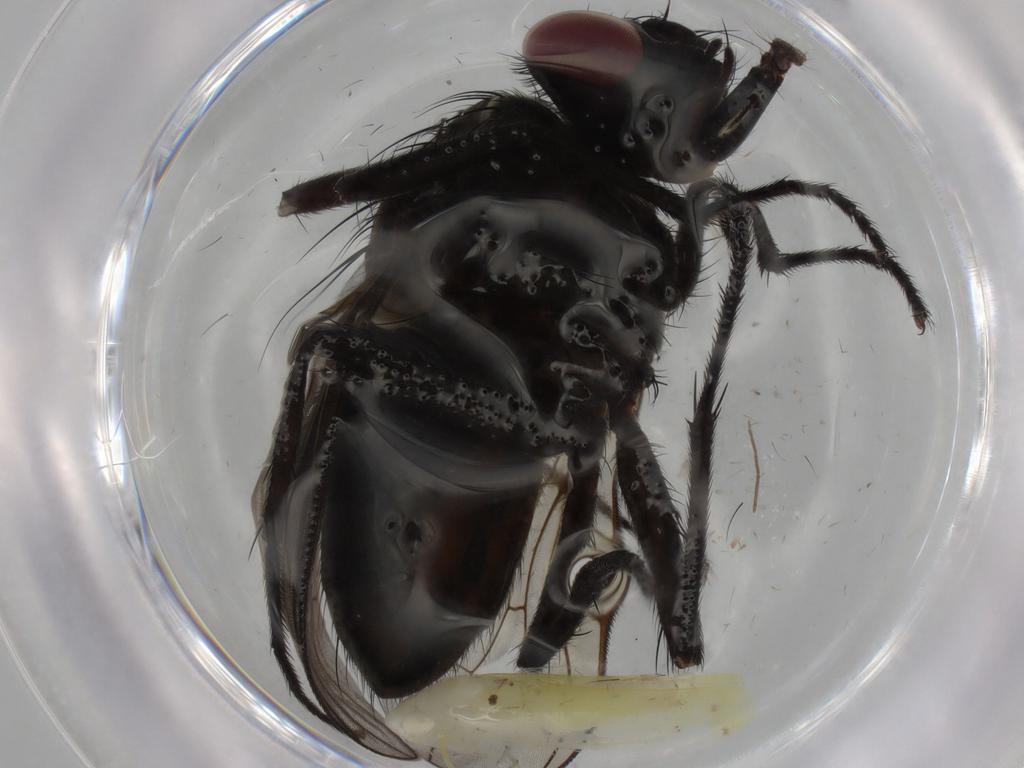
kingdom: Animalia
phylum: Arthropoda
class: Insecta
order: Diptera
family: Muscidae
